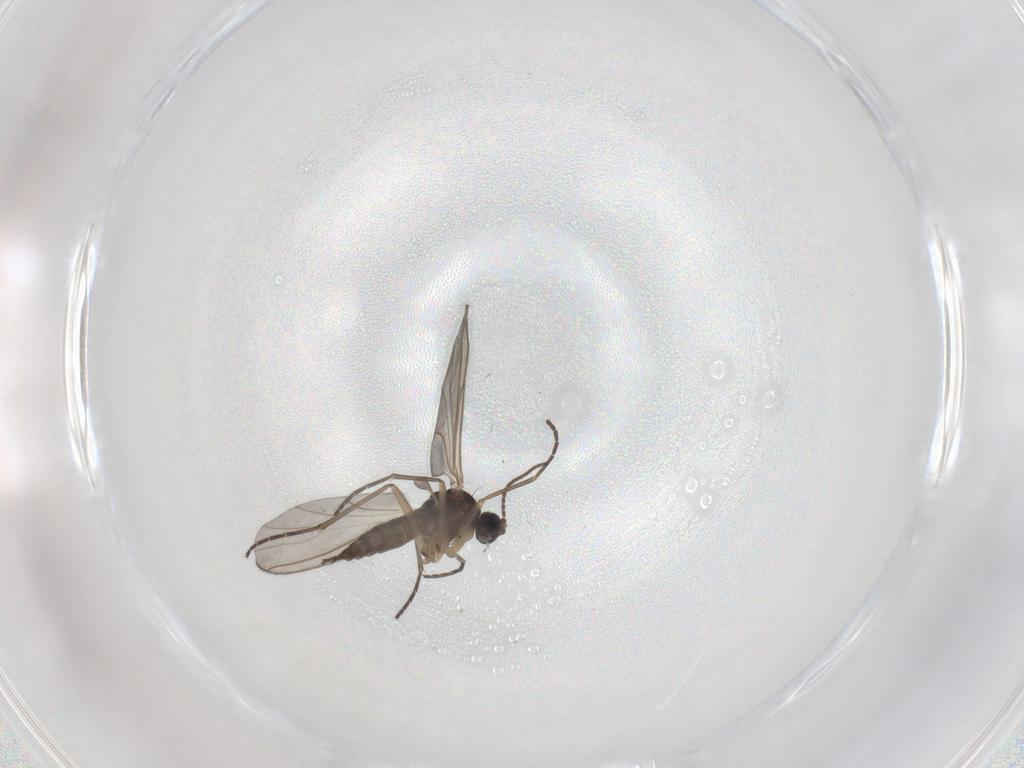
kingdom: Animalia
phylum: Arthropoda
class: Insecta
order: Diptera
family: Sciaridae
